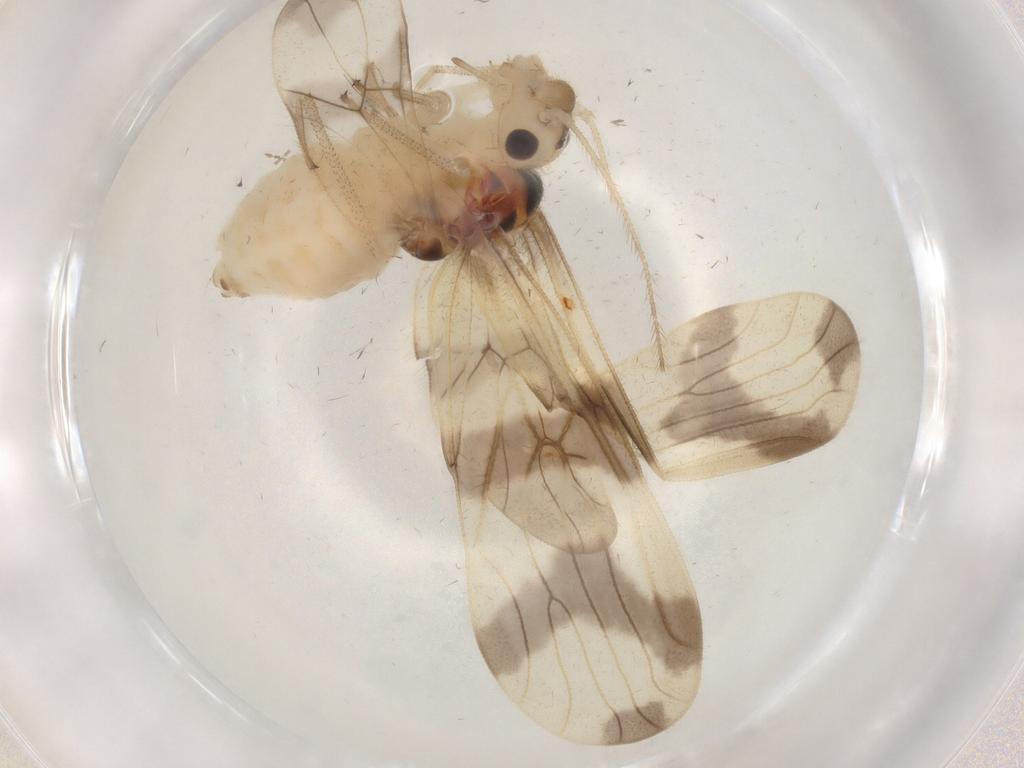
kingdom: Animalia
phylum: Arthropoda
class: Insecta
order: Psocodea
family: Amphipsocidae
